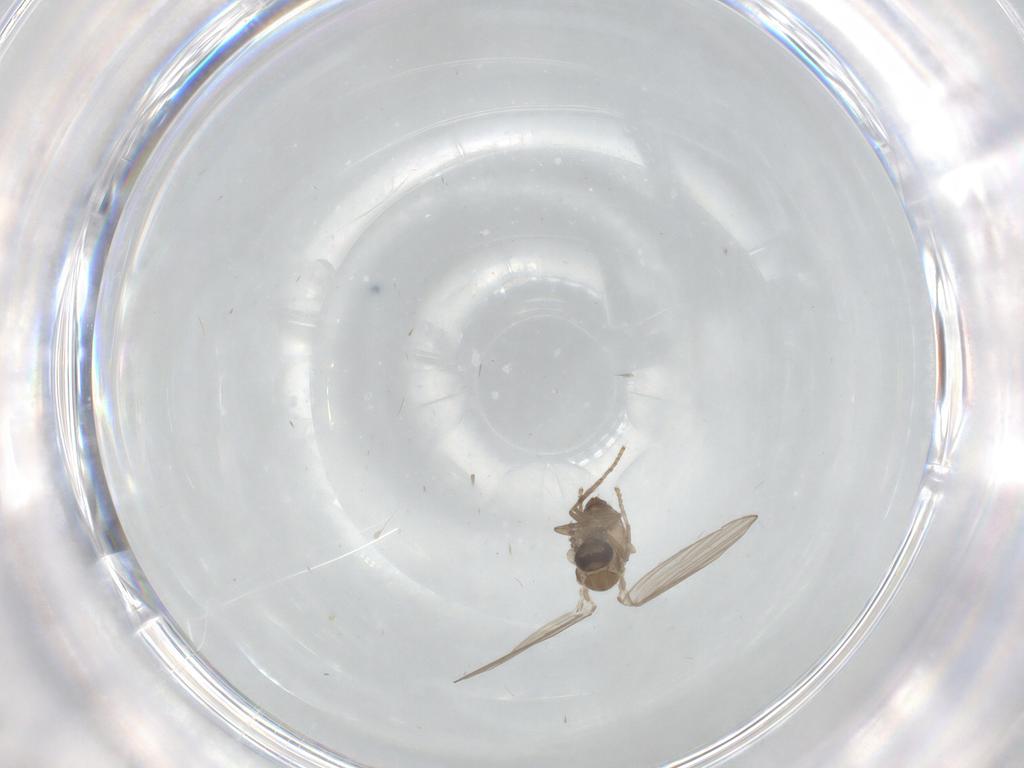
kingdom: Animalia
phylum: Arthropoda
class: Insecta
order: Diptera
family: Psychodidae
